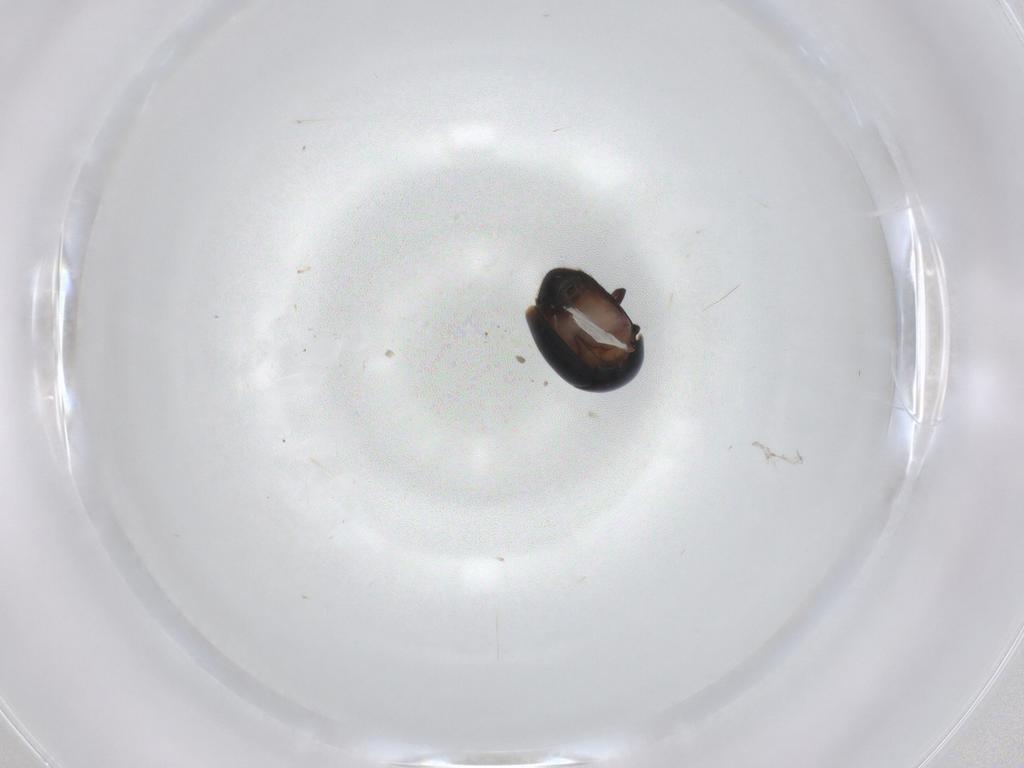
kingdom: Animalia
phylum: Arthropoda
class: Insecta
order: Coleoptera
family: Cybocephalidae
